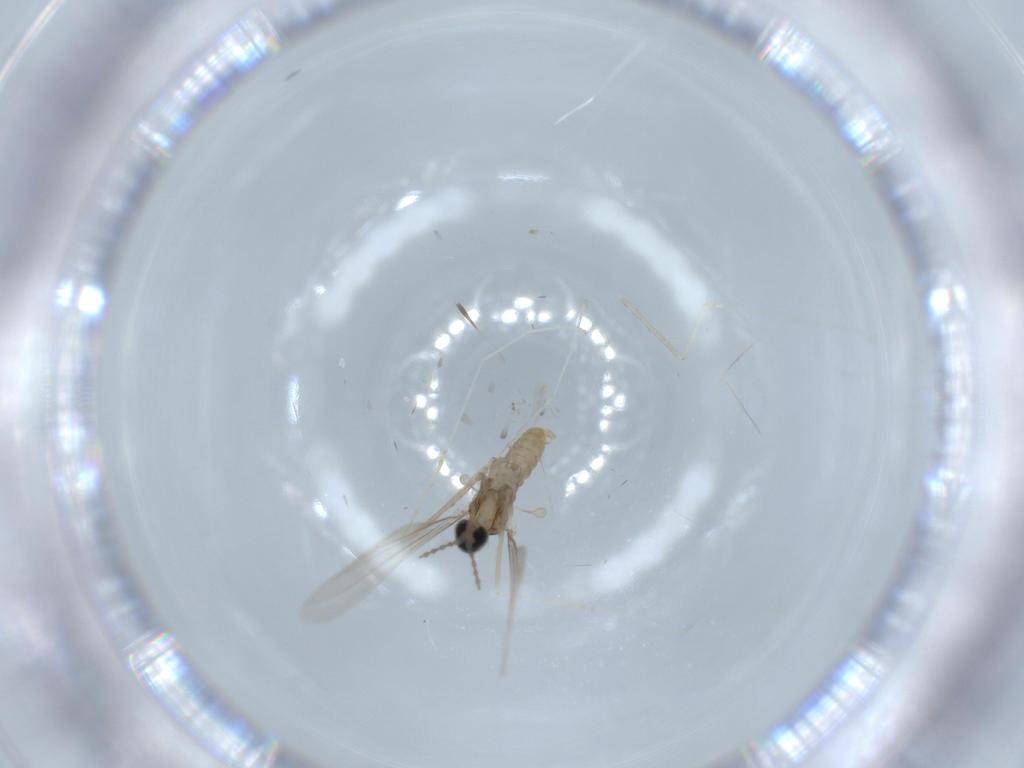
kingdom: Animalia
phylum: Arthropoda
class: Insecta
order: Diptera
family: Cecidomyiidae
